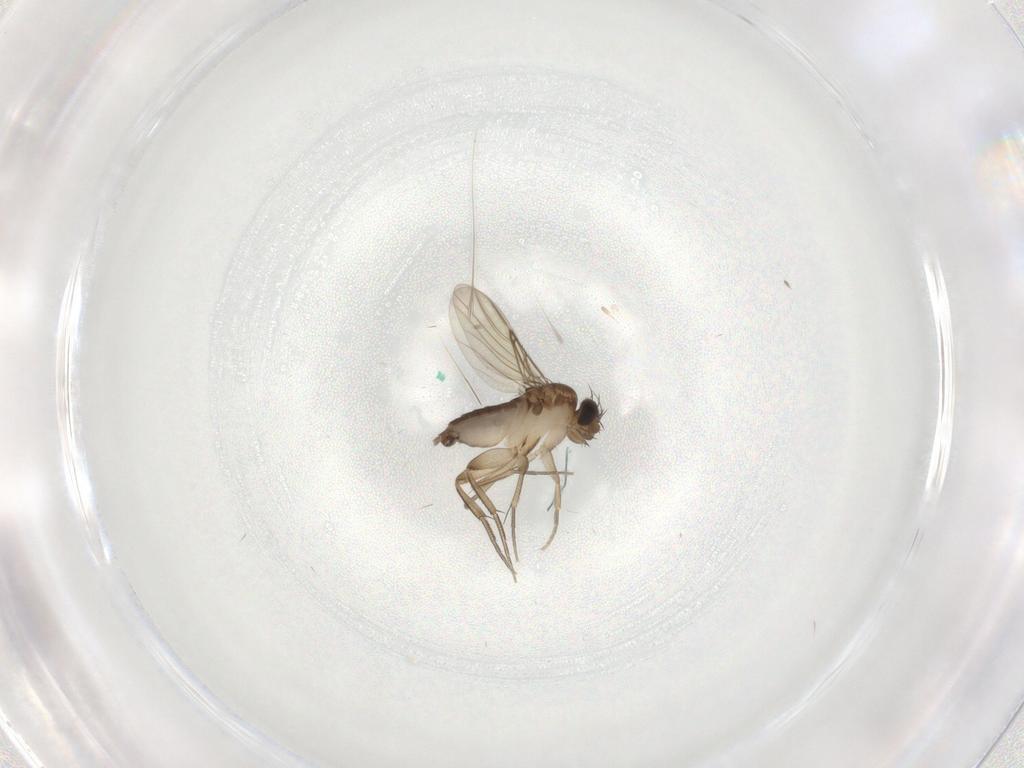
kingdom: Animalia
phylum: Arthropoda
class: Insecta
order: Diptera
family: Phoridae
